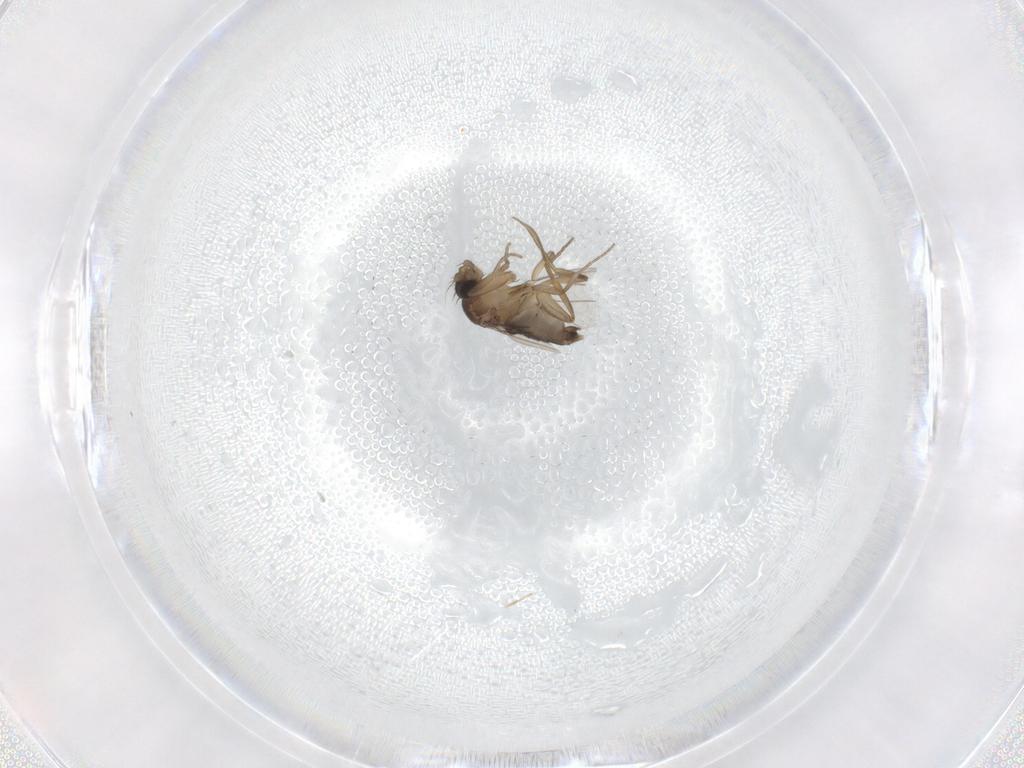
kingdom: Animalia
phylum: Arthropoda
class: Insecta
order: Diptera
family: Phoridae
